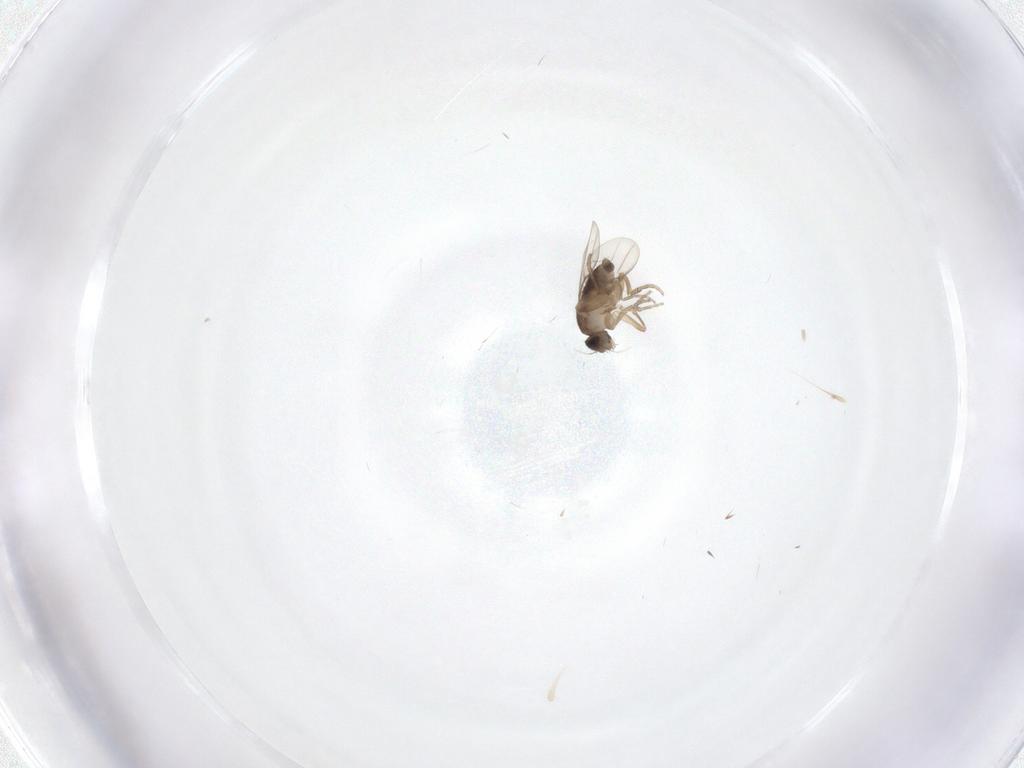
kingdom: Animalia
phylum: Arthropoda
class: Insecta
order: Diptera
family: Phoridae
